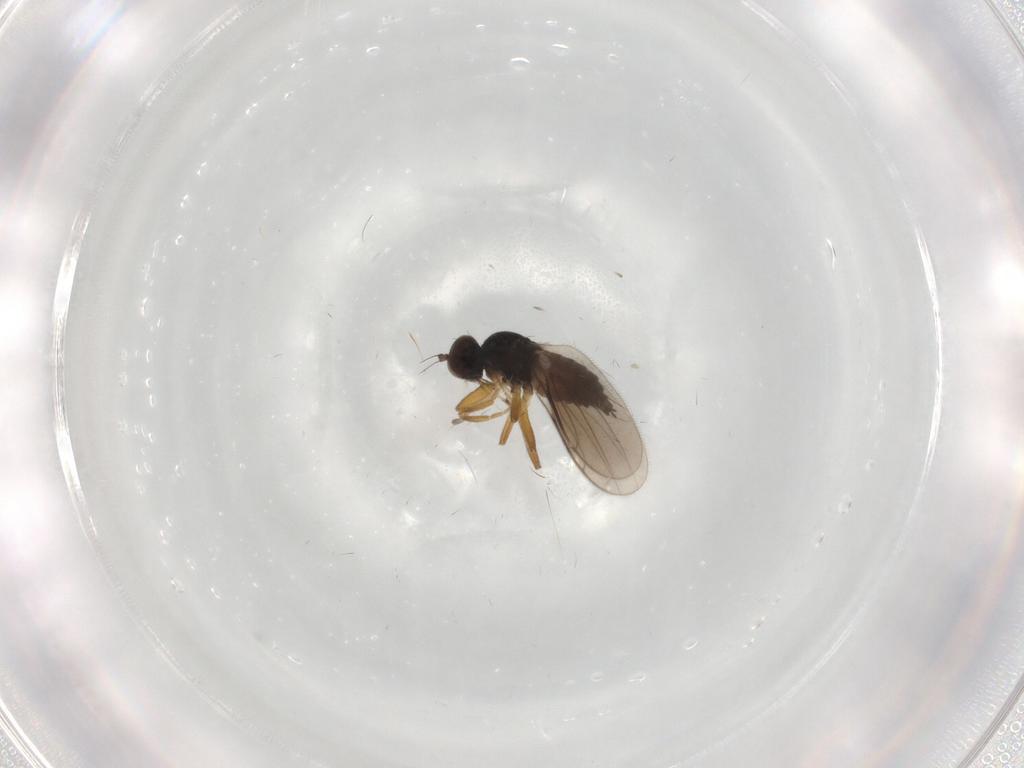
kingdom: Animalia
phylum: Arthropoda
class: Insecta
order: Diptera
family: Hybotidae
